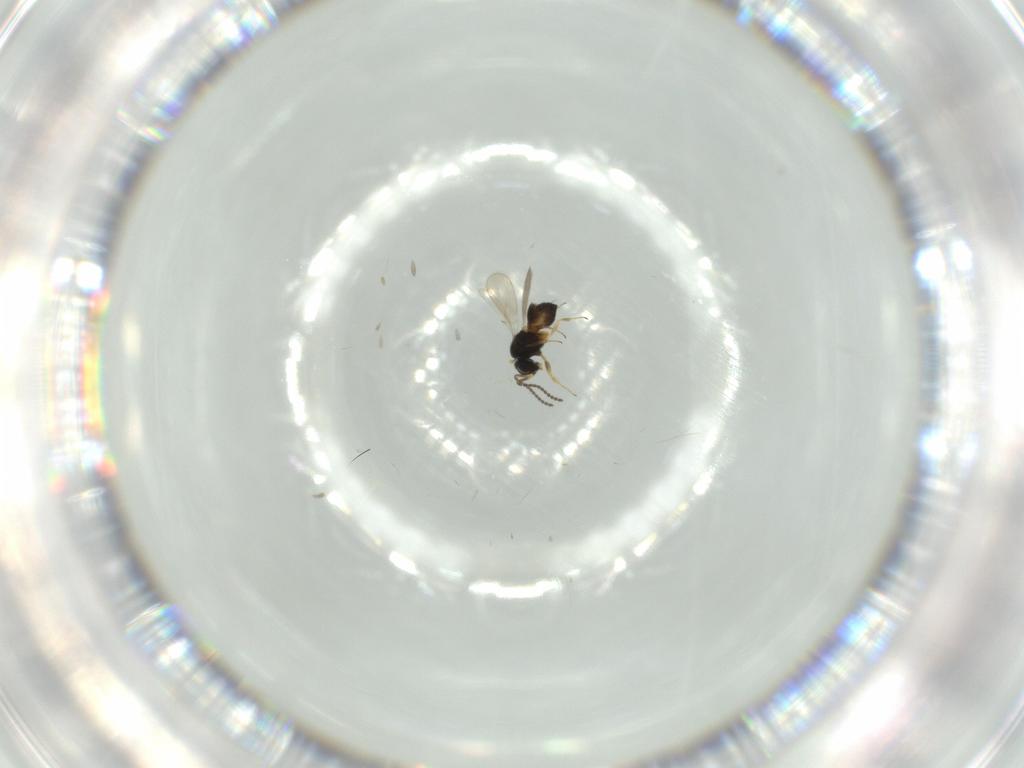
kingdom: Animalia
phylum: Arthropoda
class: Insecta
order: Hymenoptera
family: Scelionidae
